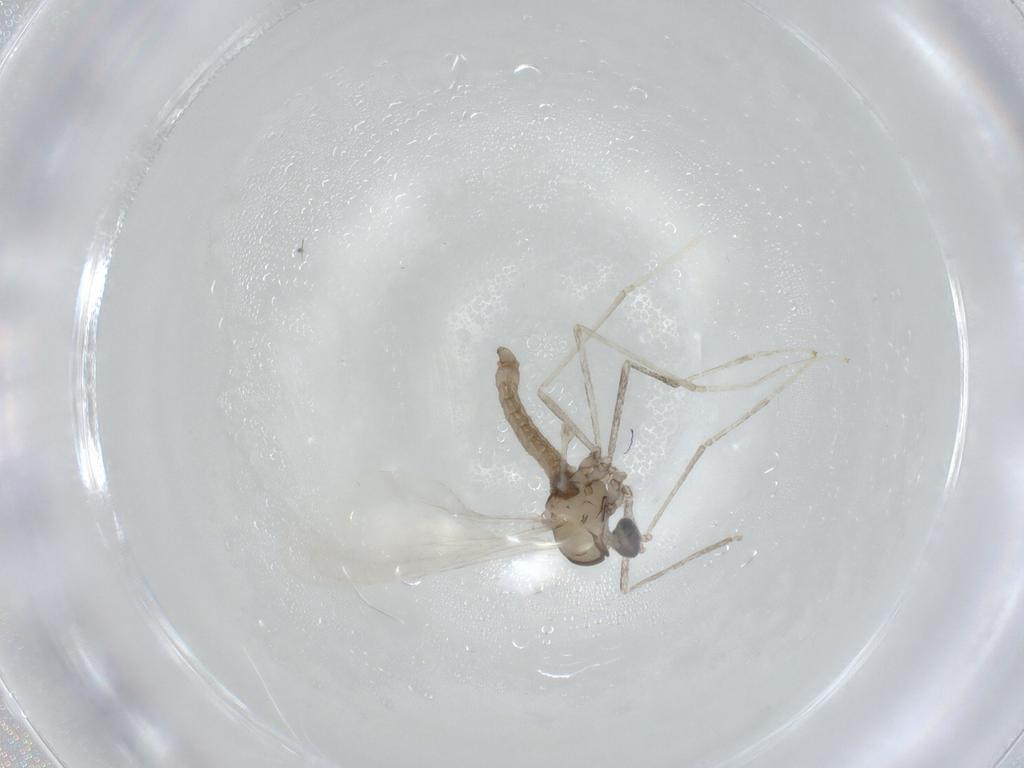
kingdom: Animalia
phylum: Arthropoda
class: Insecta
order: Diptera
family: Cecidomyiidae
